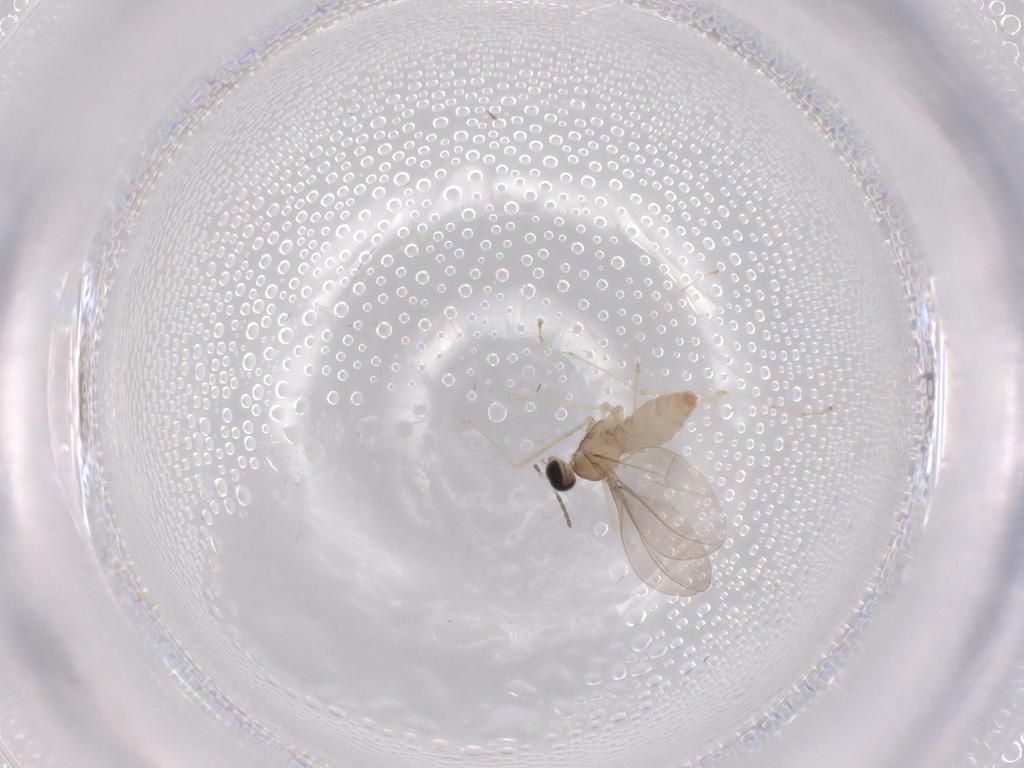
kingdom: Animalia
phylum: Arthropoda
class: Insecta
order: Diptera
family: Cecidomyiidae
